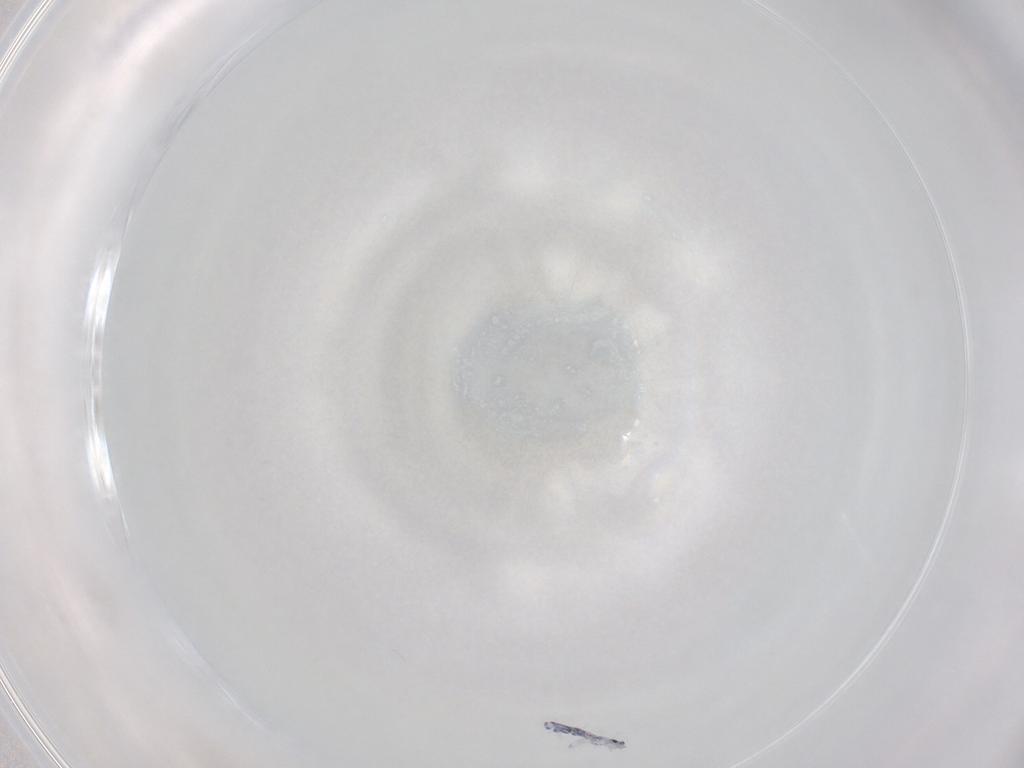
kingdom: Animalia
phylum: Arthropoda
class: Collembola
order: Entomobryomorpha
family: Entomobryidae
